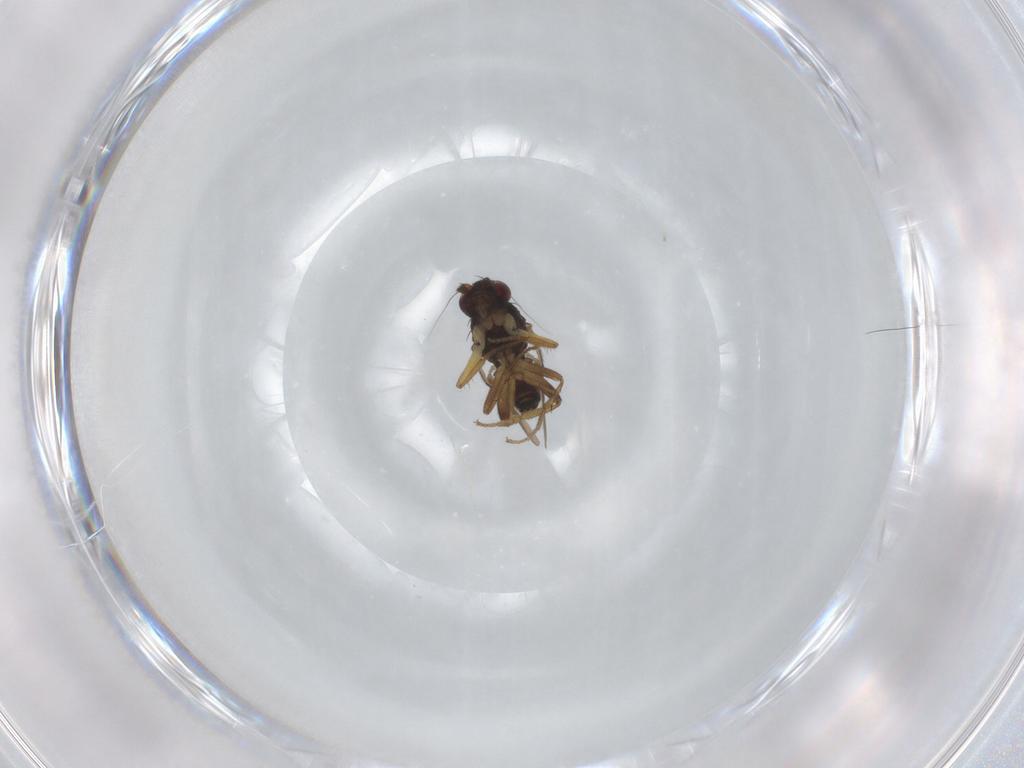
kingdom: Animalia
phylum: Arthropoda
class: Insecta
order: Diptera
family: Sphaeroceridae
